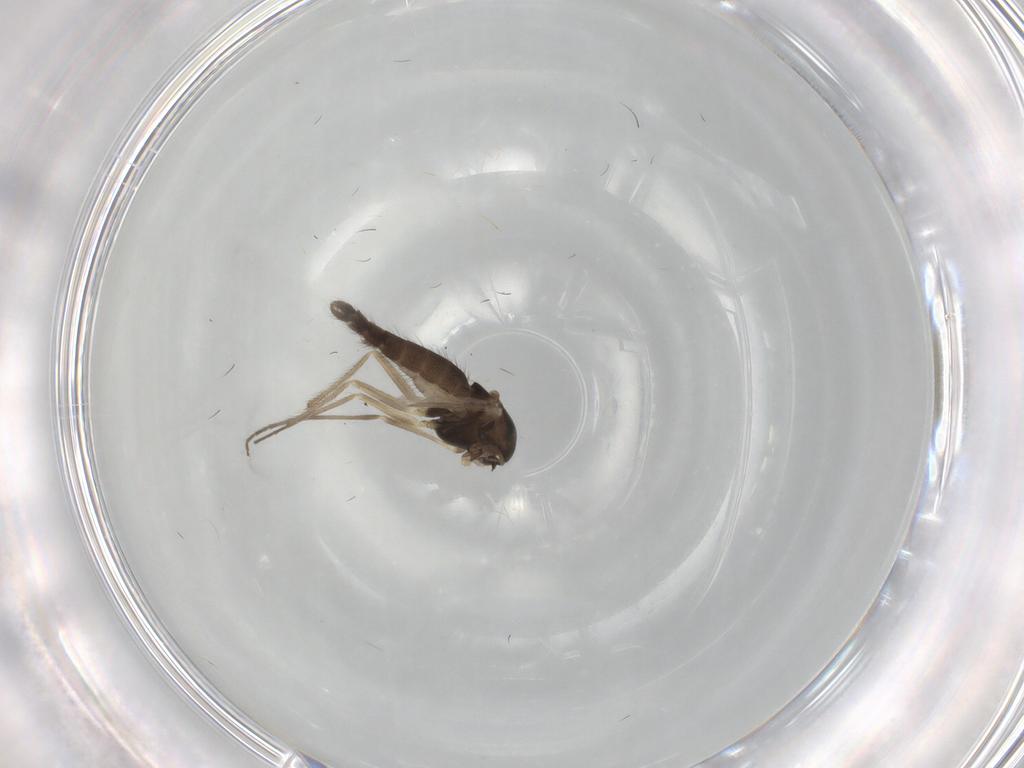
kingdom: Animalia
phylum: Arthropoda
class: Insecta
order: Diptera
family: Chironomidae
